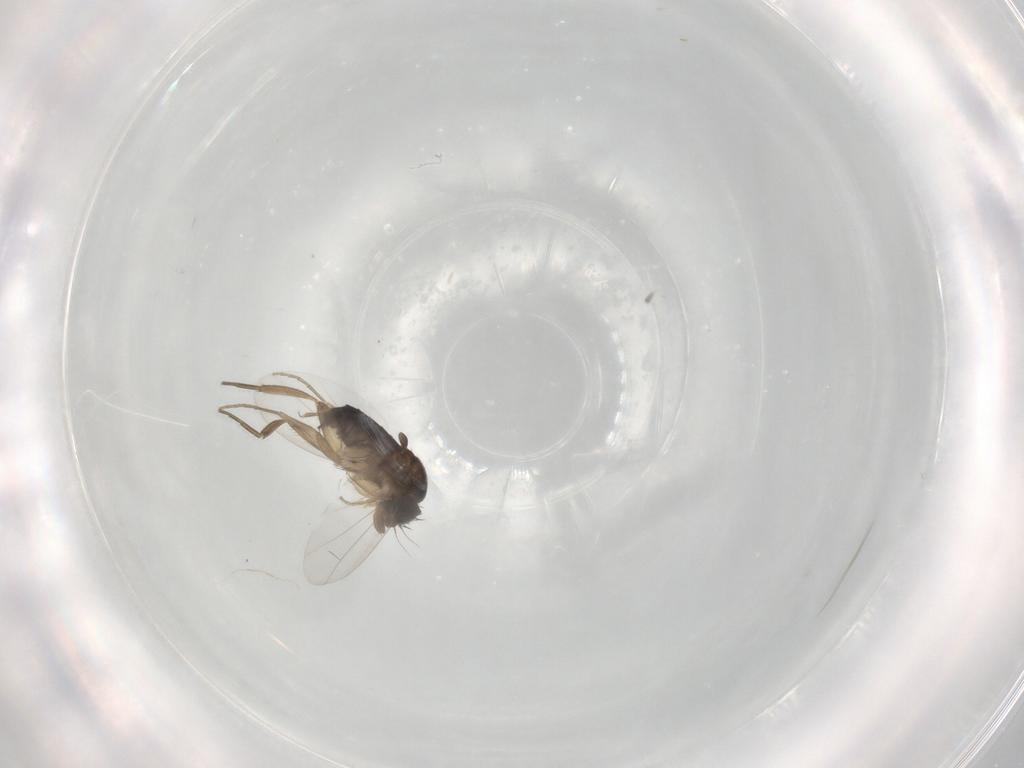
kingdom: Animalia
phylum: Arthropoda
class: Insecta
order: Diptera
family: Phoridae
